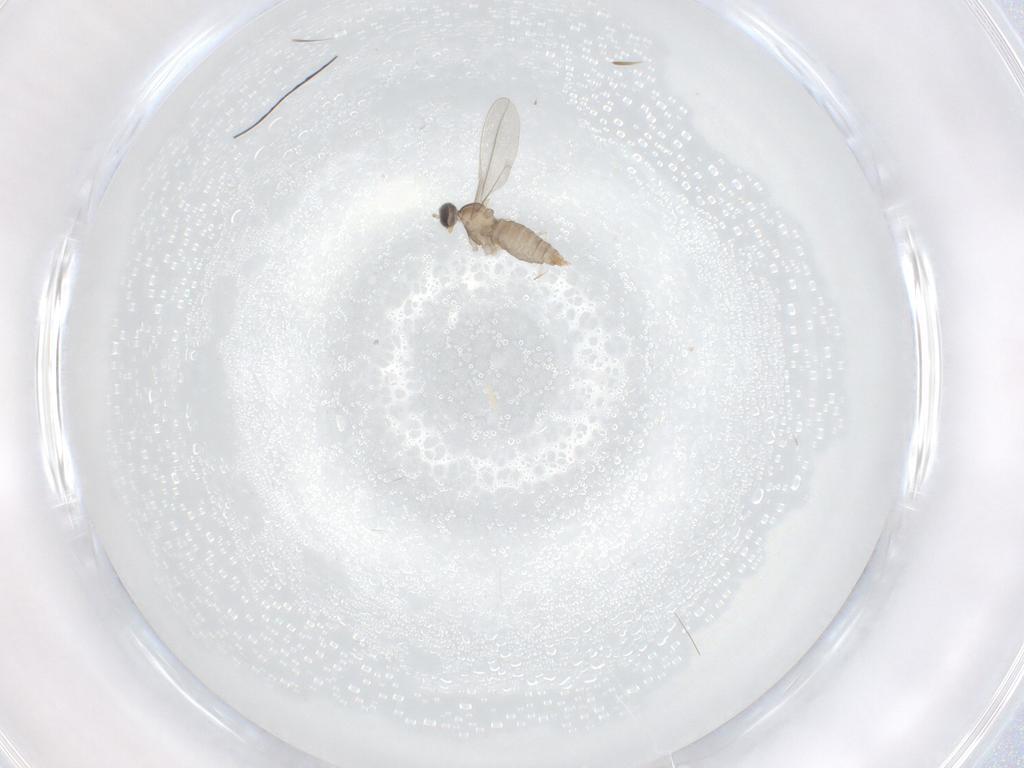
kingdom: Animalia
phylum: Arthropoda
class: Insecta
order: Diptera
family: Cecidomyiidae
